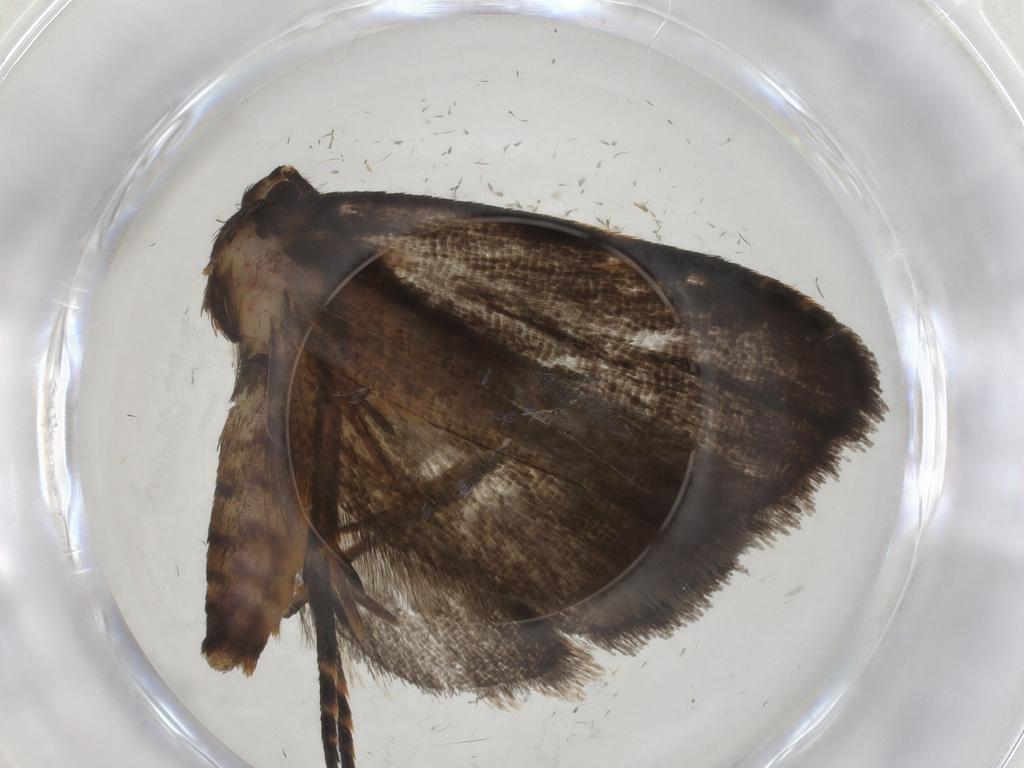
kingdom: Animalia
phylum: Arthropoda
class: Insecta
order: Lepidoptera
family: Depressariidae
